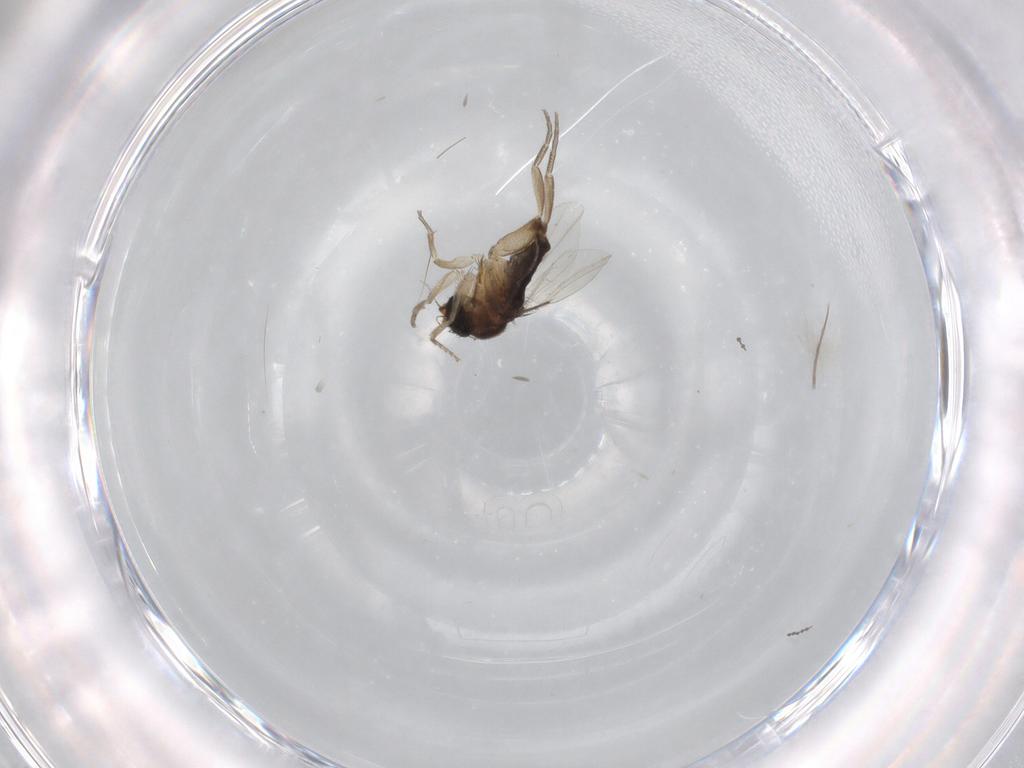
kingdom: Animalia
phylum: Arthropoda
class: Insecta
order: Diptera
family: Phoridae
